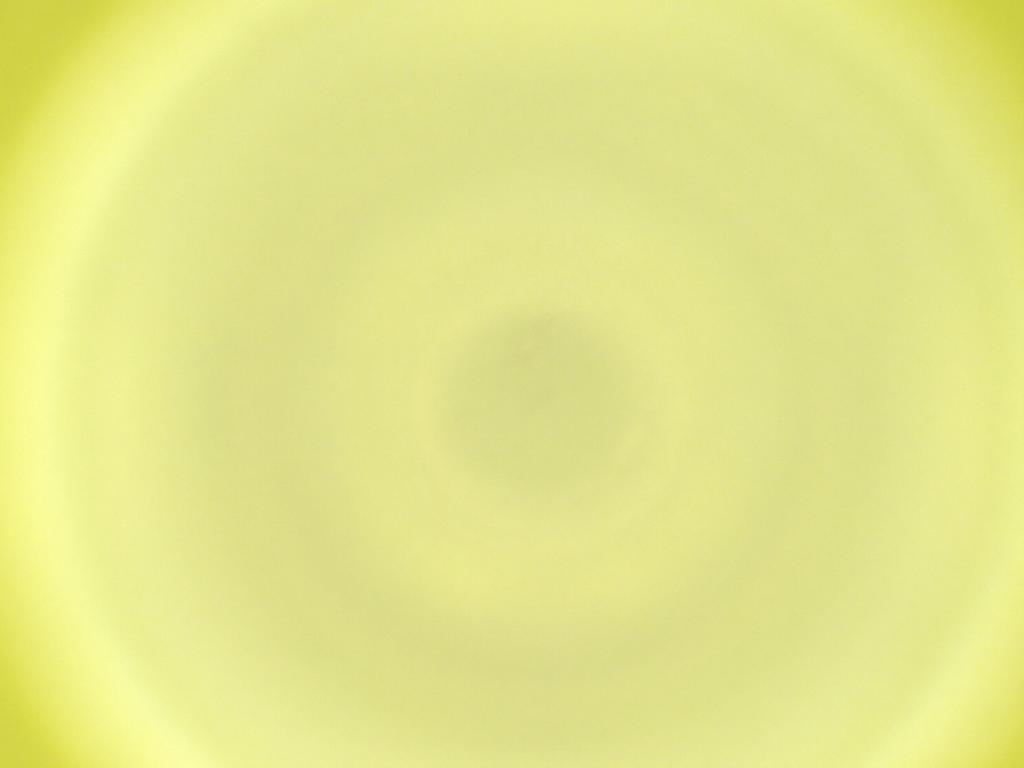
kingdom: Animalia
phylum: Arthropoda
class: Insecta
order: Diptera
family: Cecidomyiidae
